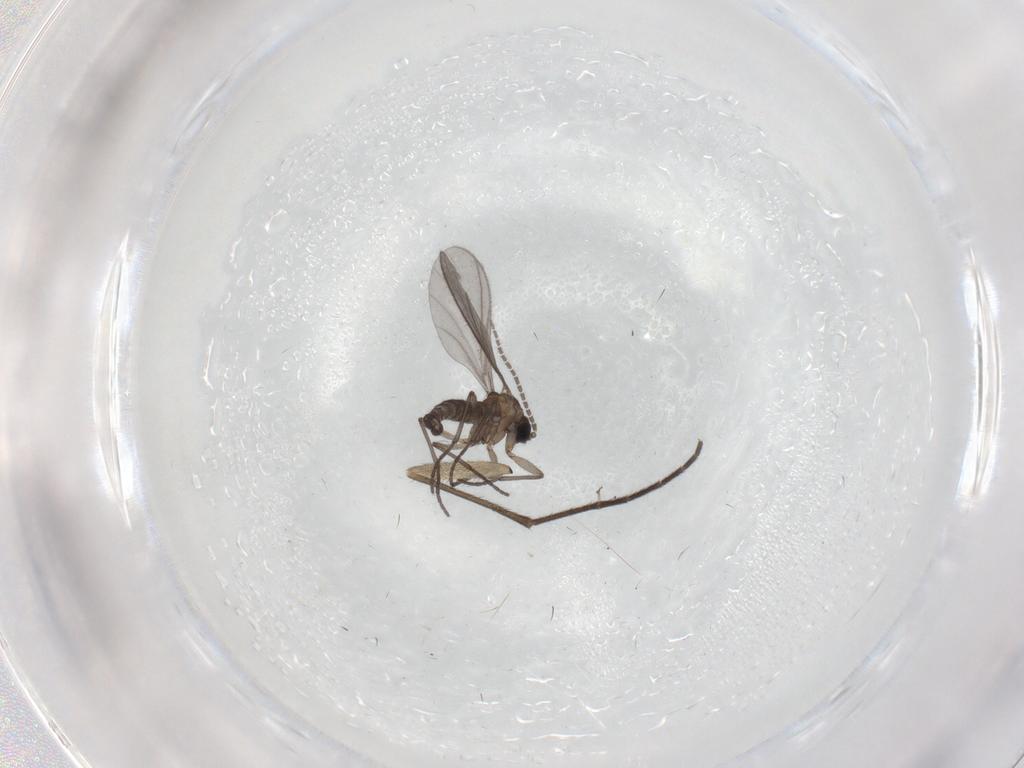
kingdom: Animalia
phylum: Arthropoda
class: Insecta
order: Diptera
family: Sciaridae
